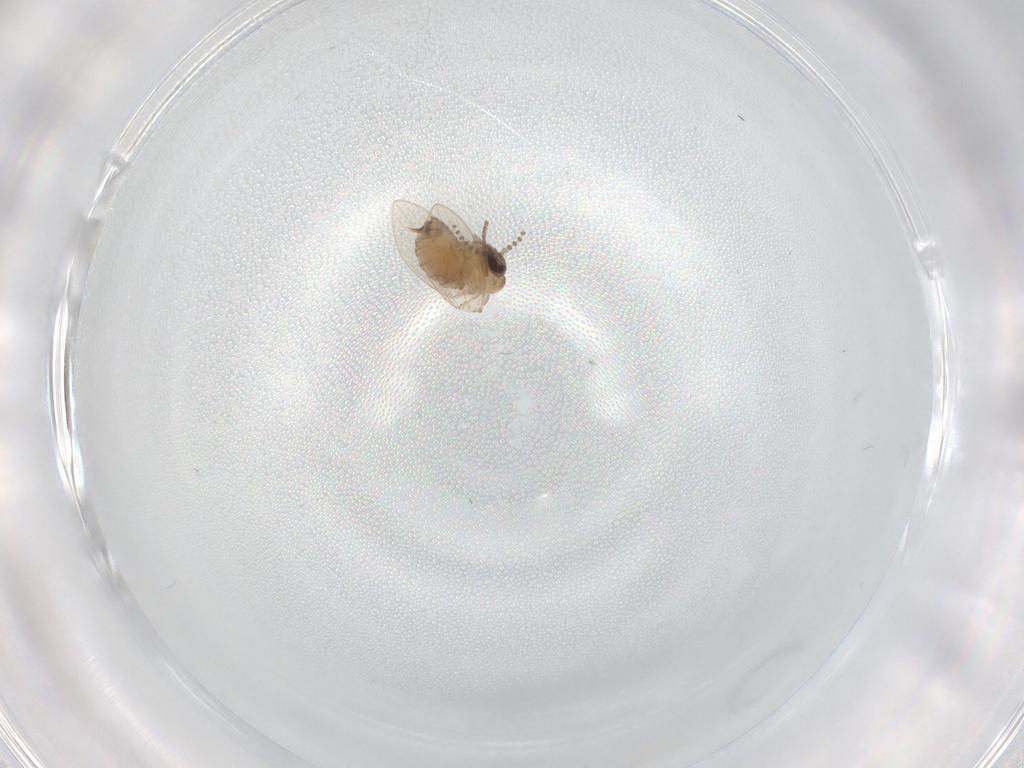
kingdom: Animalia
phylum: Arthropoda
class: Insecta
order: Diptera
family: Psychodidae
